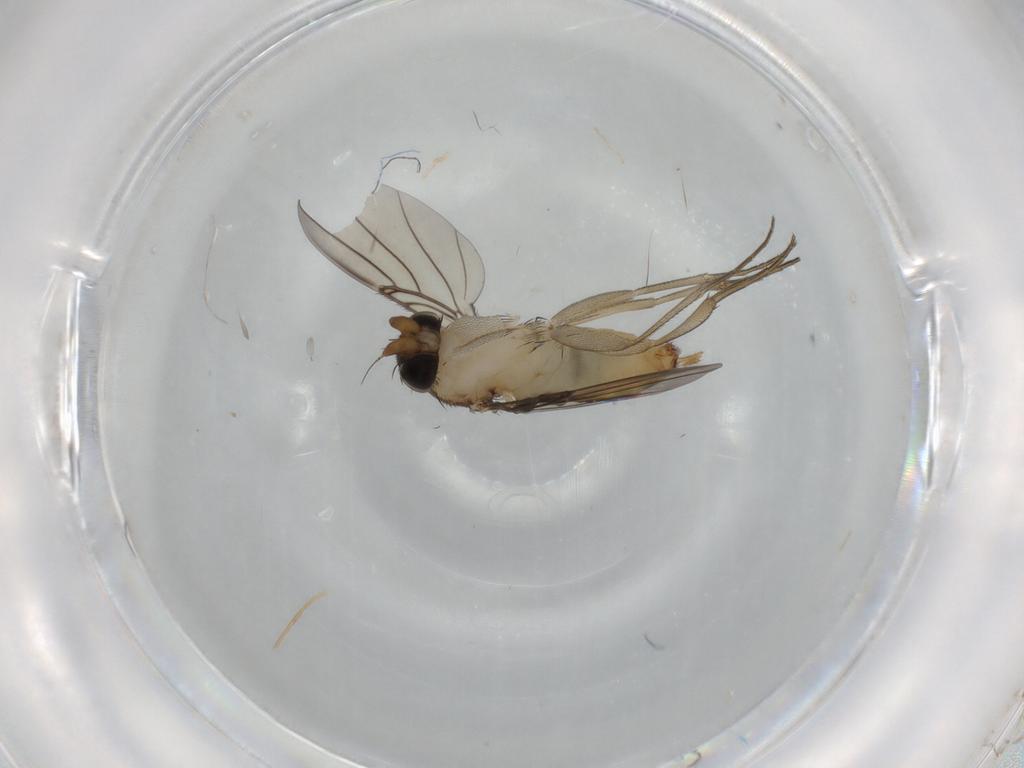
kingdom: Animalia
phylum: Arthropoda
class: Insecta
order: Diptera
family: Phoridae
